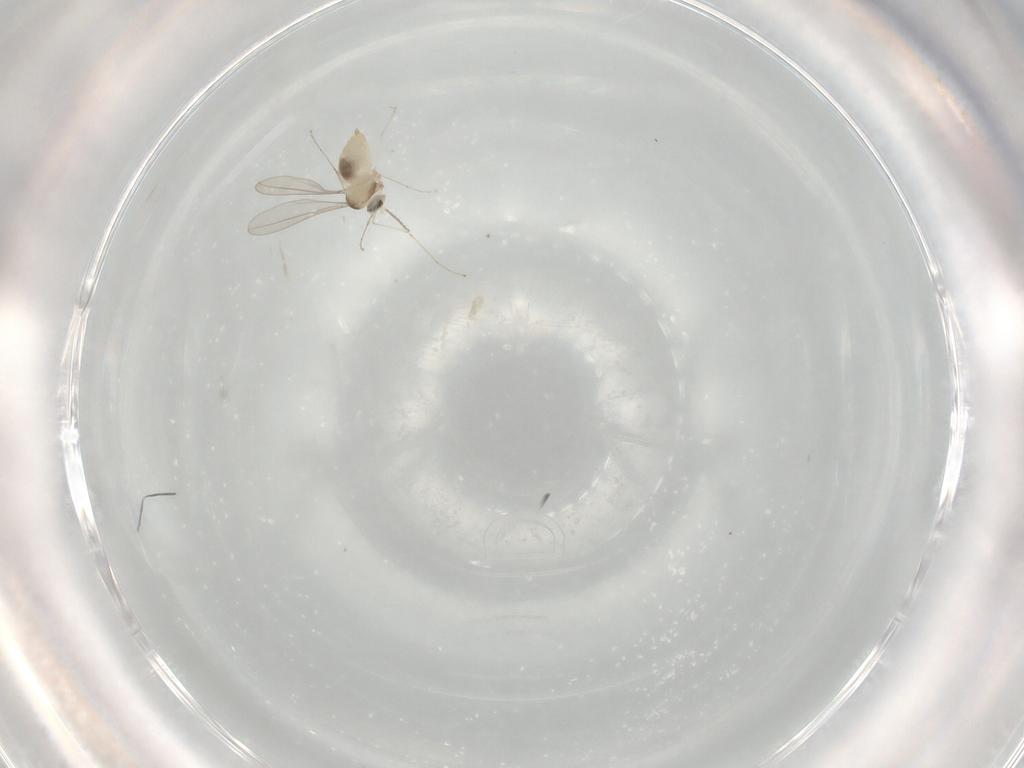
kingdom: Animalia
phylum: Arthropoda
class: Insecta
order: Diptera
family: Cecidomyiidae
